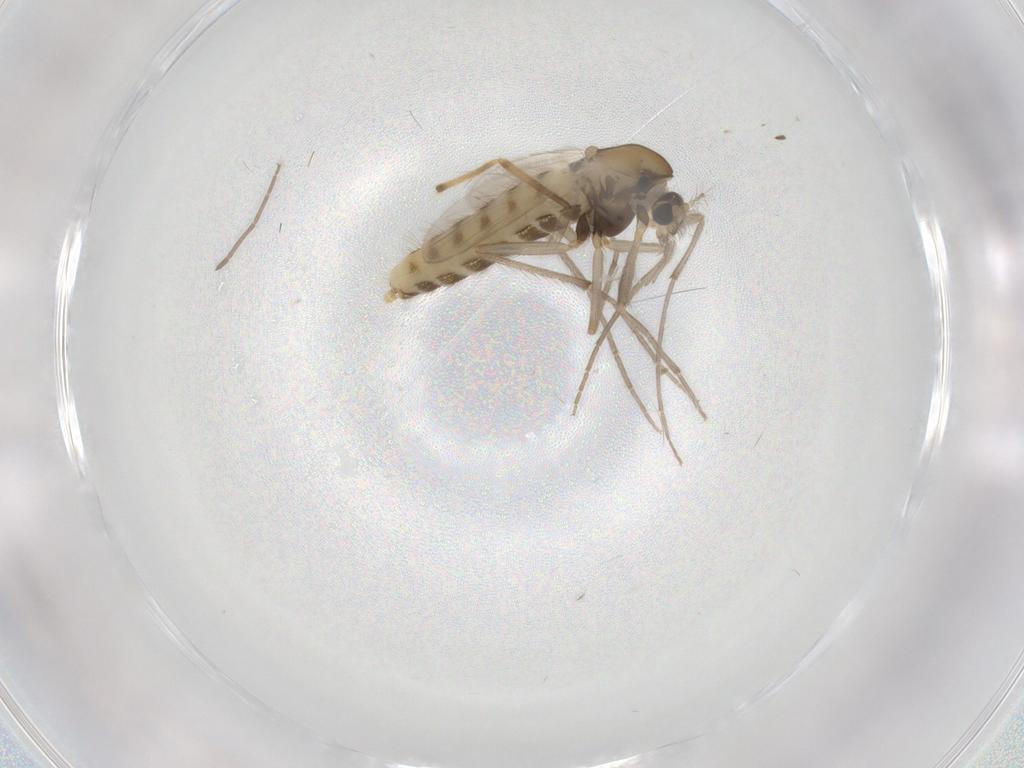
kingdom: Animalia
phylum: Arthropoda
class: Insecta
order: Diptera
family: Chironomidae
